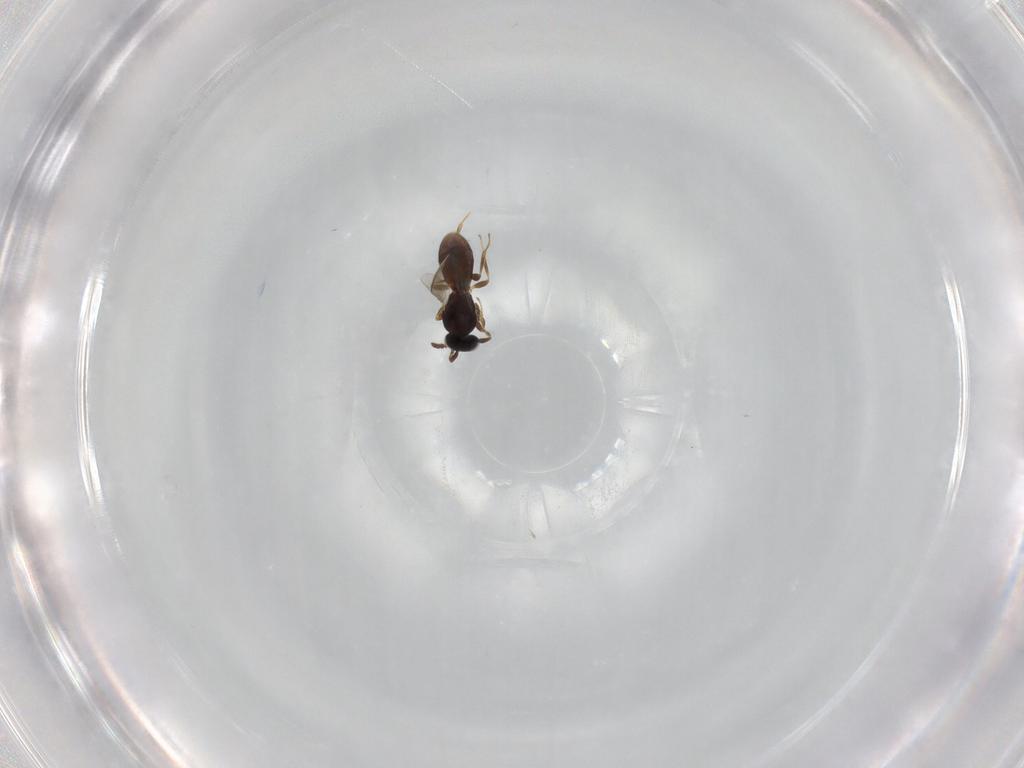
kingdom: Animalia
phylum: Arthropoda
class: Insecta
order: Hymenoptera
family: Platygastridae
